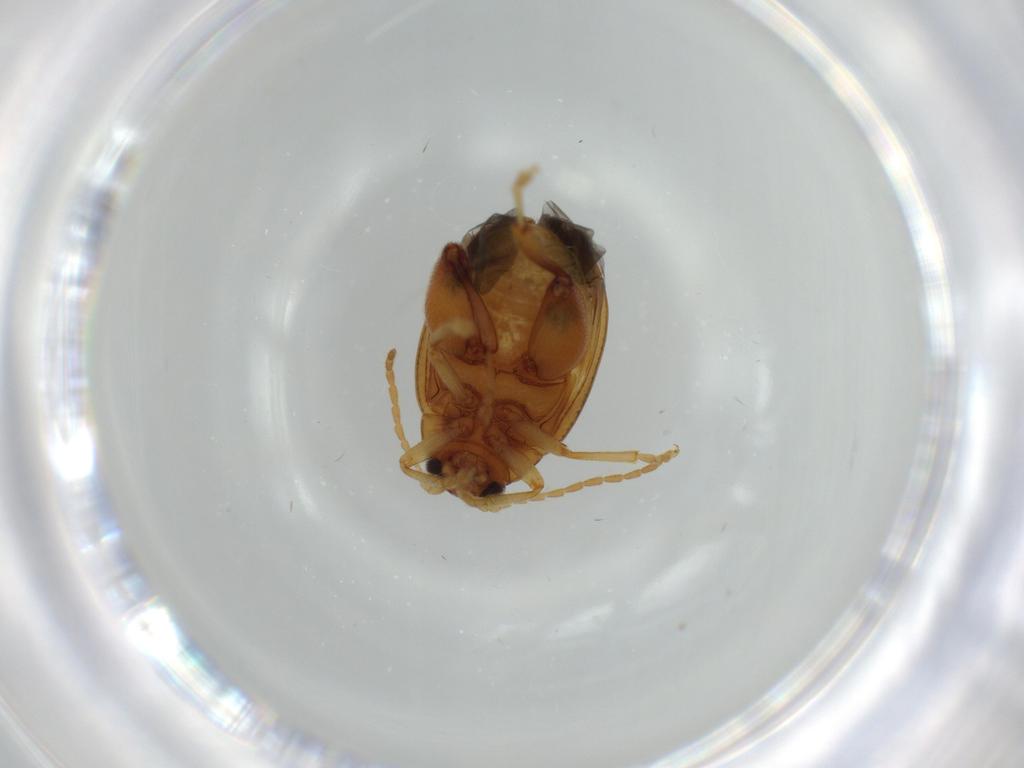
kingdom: Animalia
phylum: Arthropoda
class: Insecta
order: Coleoptera
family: Chrysomelidae
